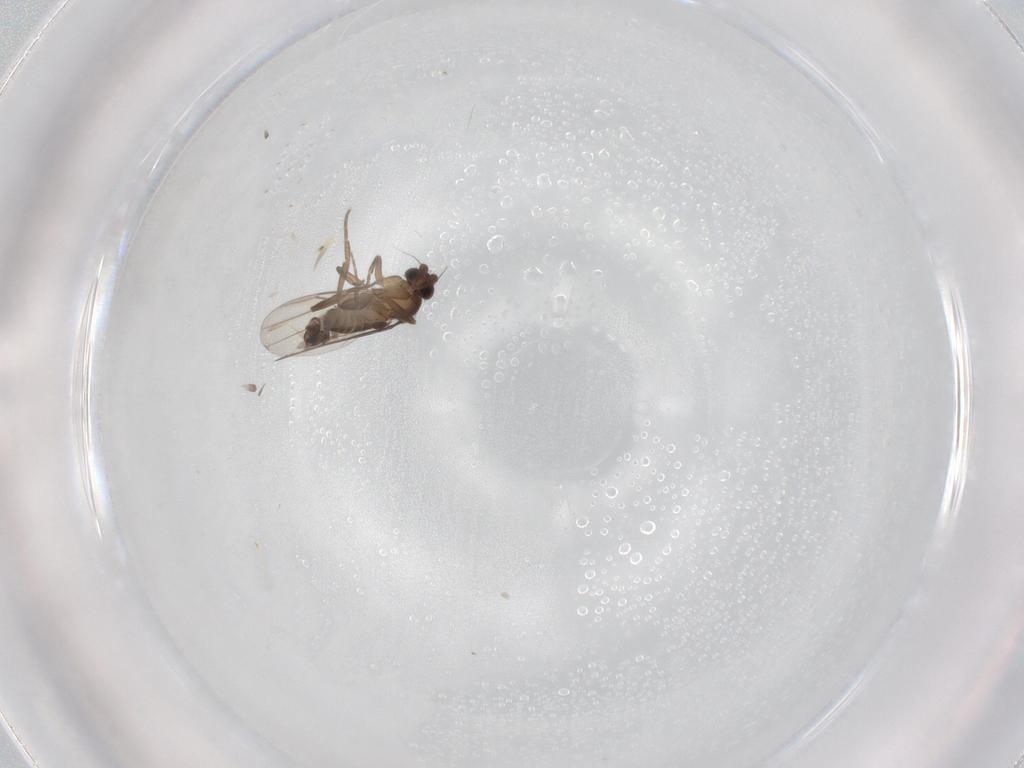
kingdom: Animalia
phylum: Arthropoda
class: Insecta
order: Diptera
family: Phoridae
